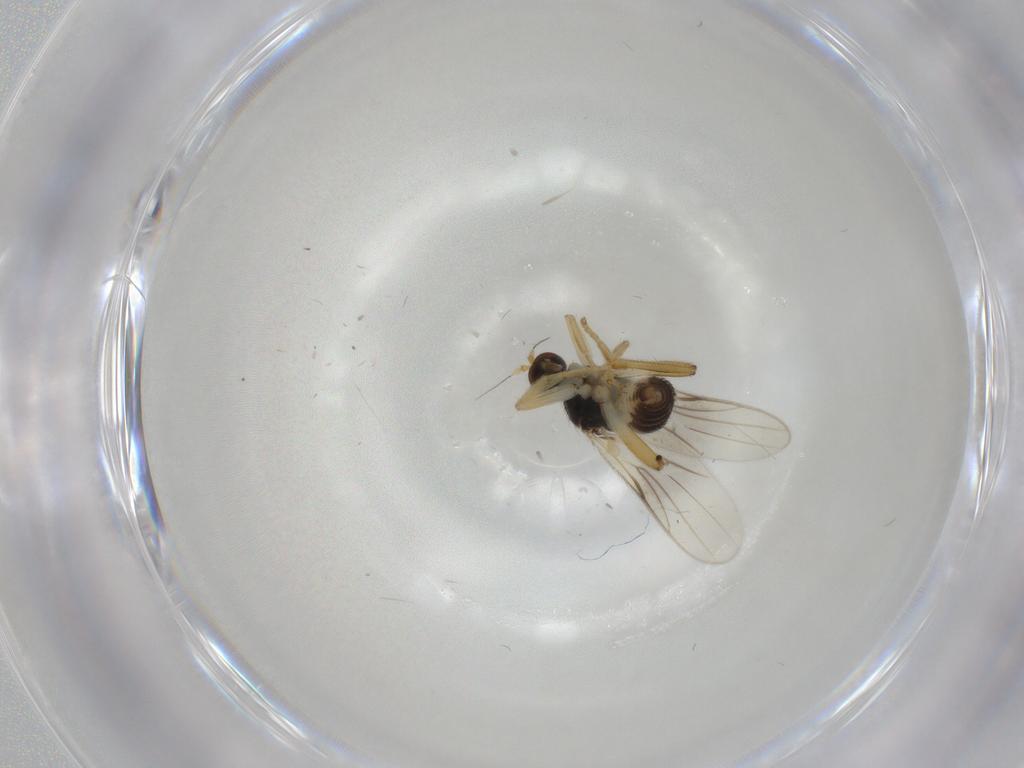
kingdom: Animalia
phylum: Arthropoda
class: Insecta
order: Diptera
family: Hybotidae
